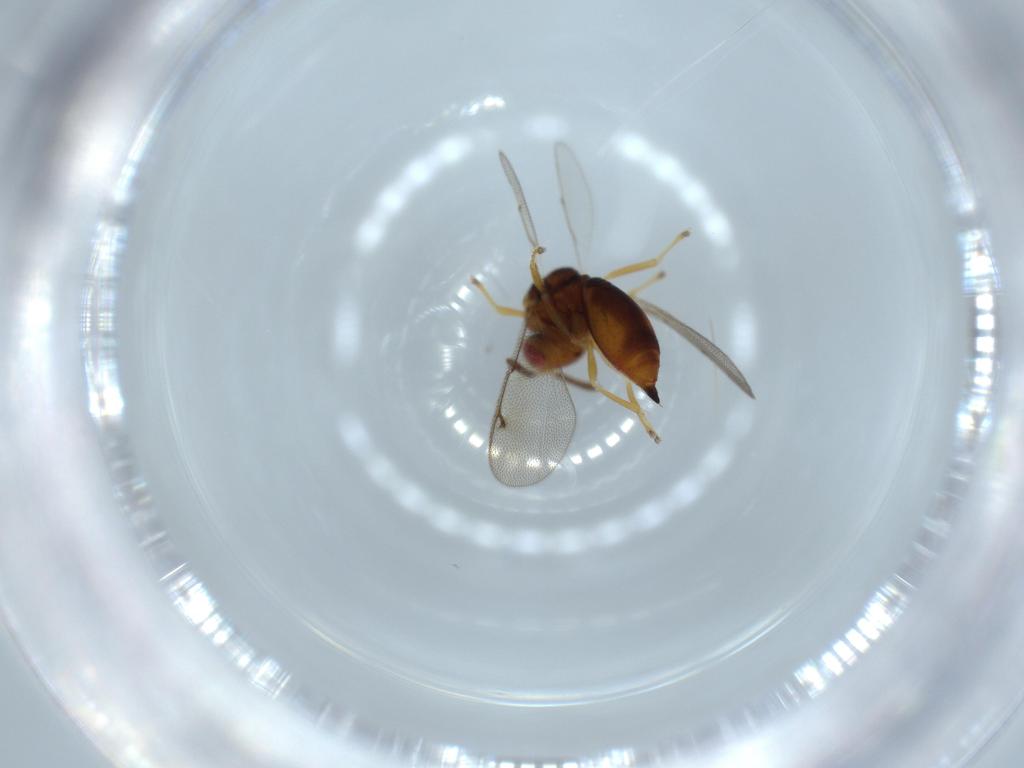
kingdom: Animalia
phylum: Arthropoda
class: Insecta
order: Hymenoptera
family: Eurytomidae
